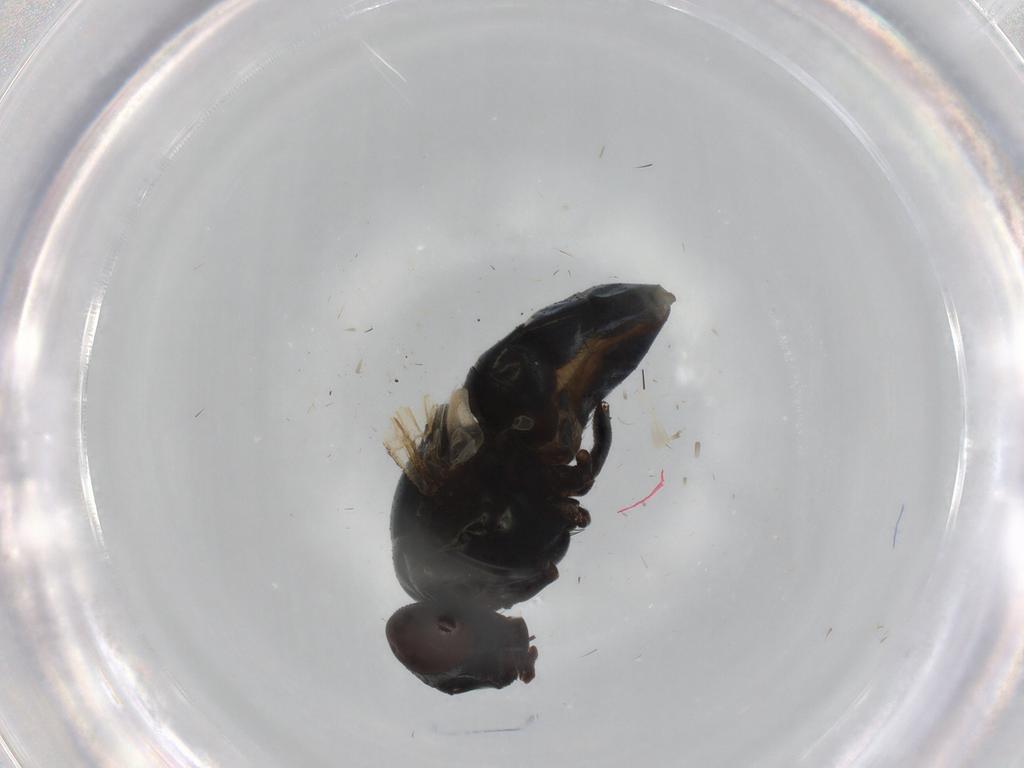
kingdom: Animalia
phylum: Arthropoda
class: Insecta
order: Diptera
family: Muscidae
